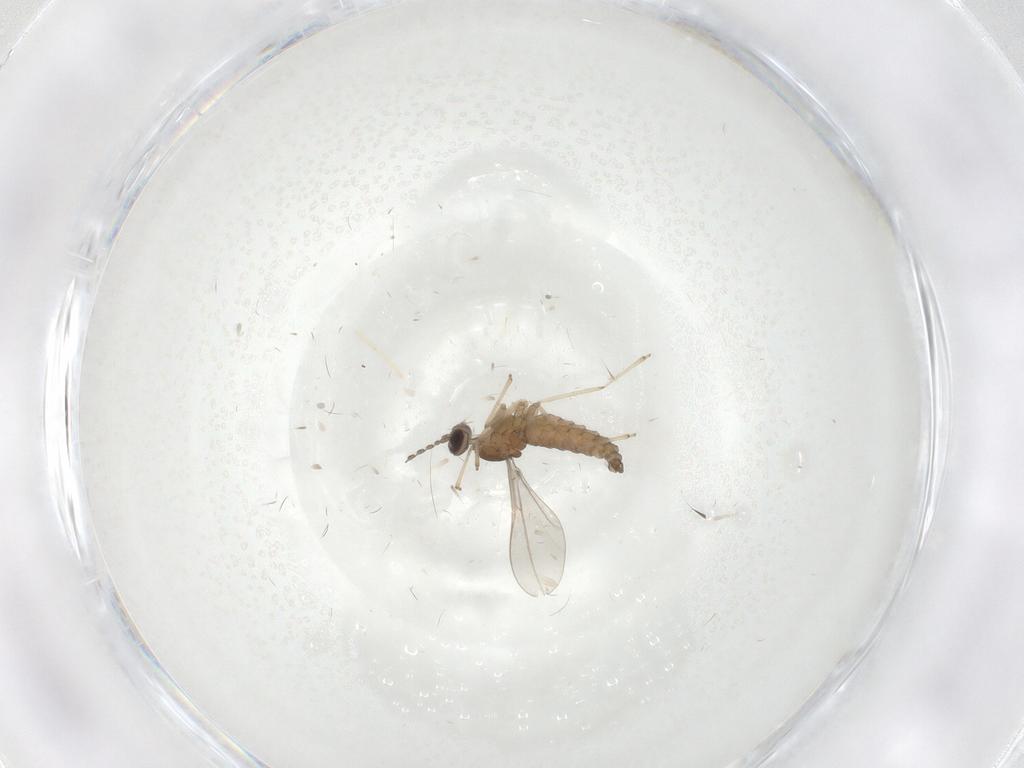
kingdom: Animalia
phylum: Arthropoda
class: Insecta
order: Diptera
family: Cecidomyiidae
